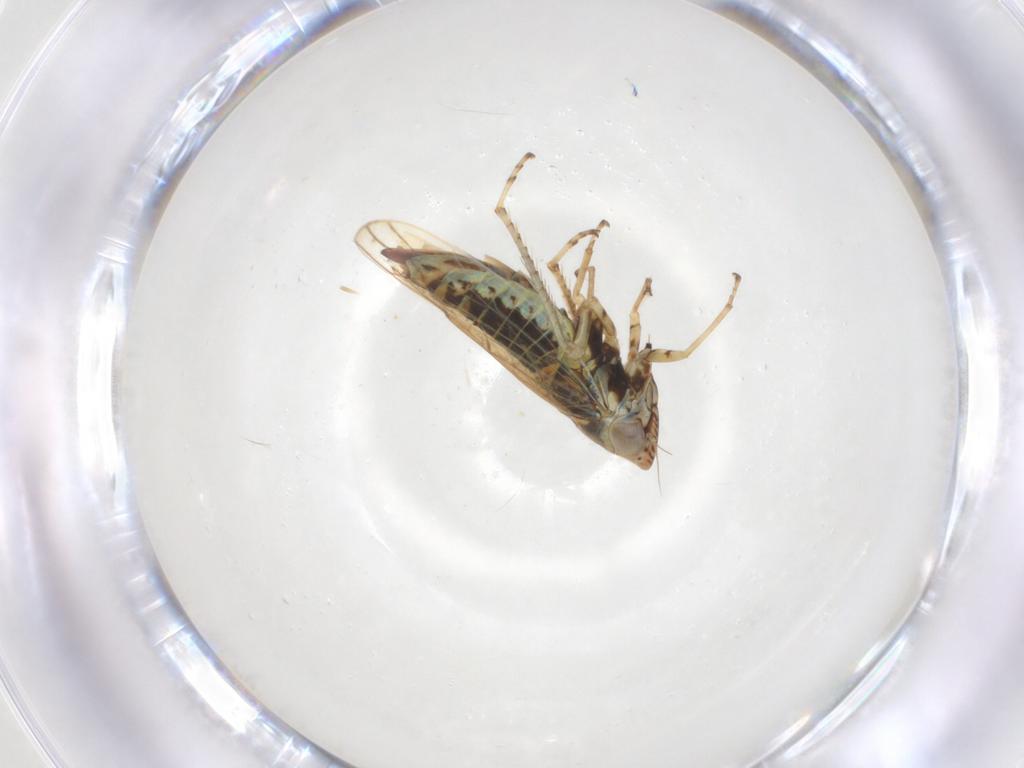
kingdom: Animalia
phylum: Arthropoda
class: Insecta
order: Hemiptera
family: Cicadellidae
